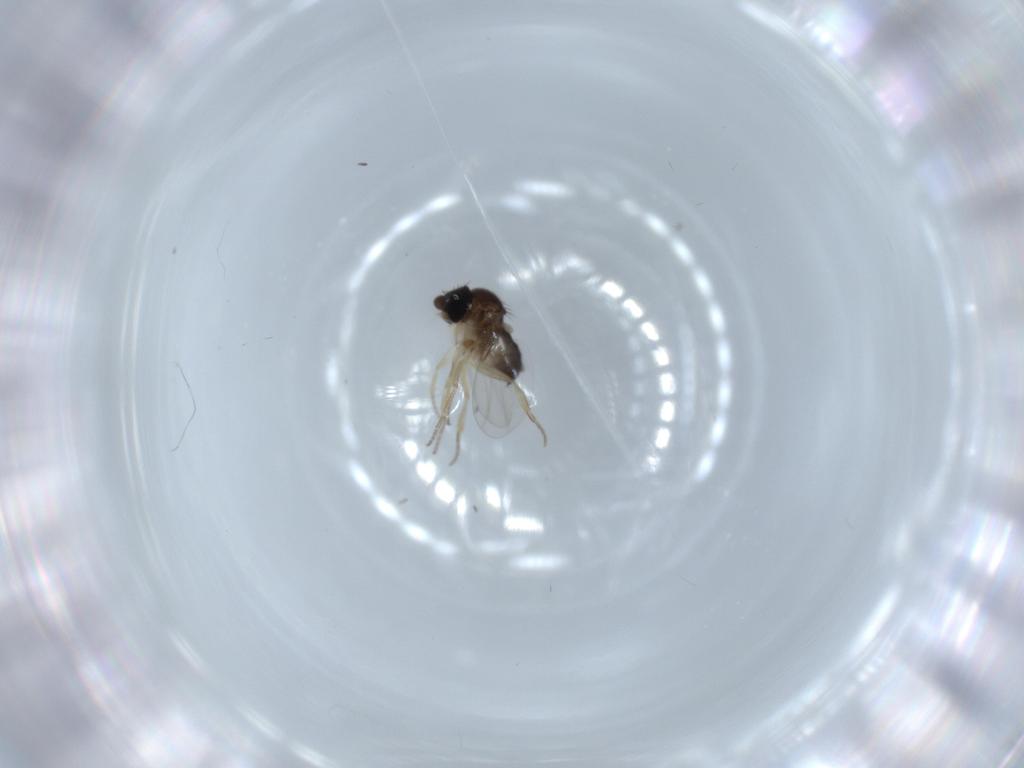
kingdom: Animalia
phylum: Arthropoda
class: Insecta
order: Diptera
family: Phoridae
